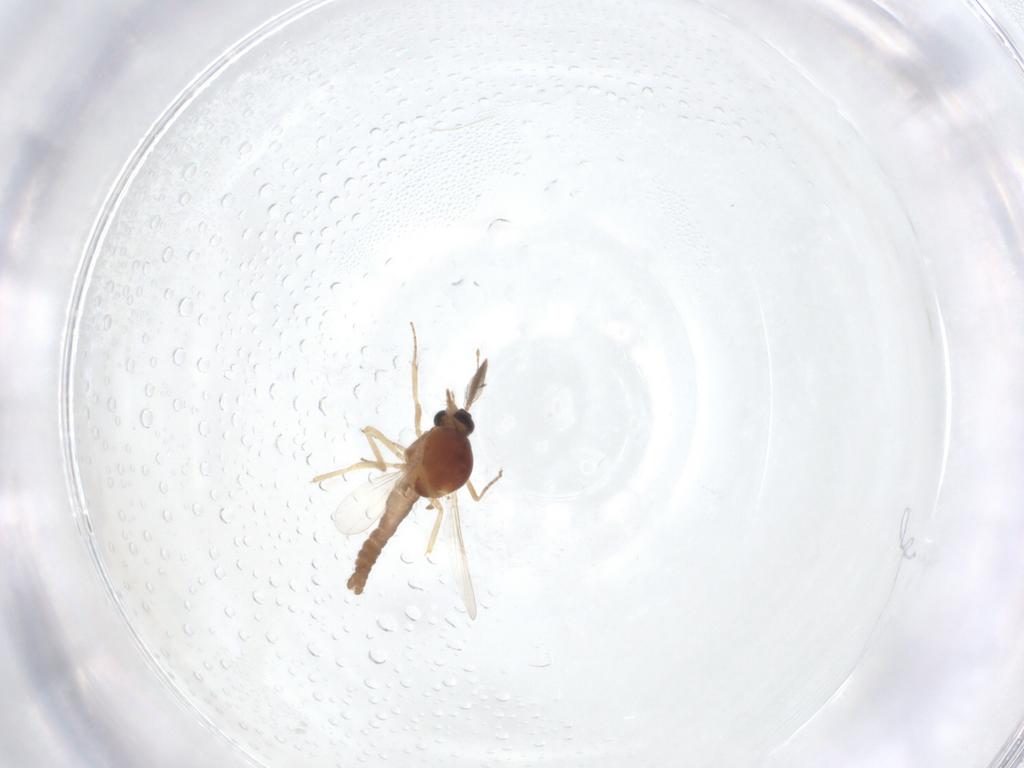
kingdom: Animalia
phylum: Arthropoda
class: Insecta
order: Diptera
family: Ceratopogonidae
